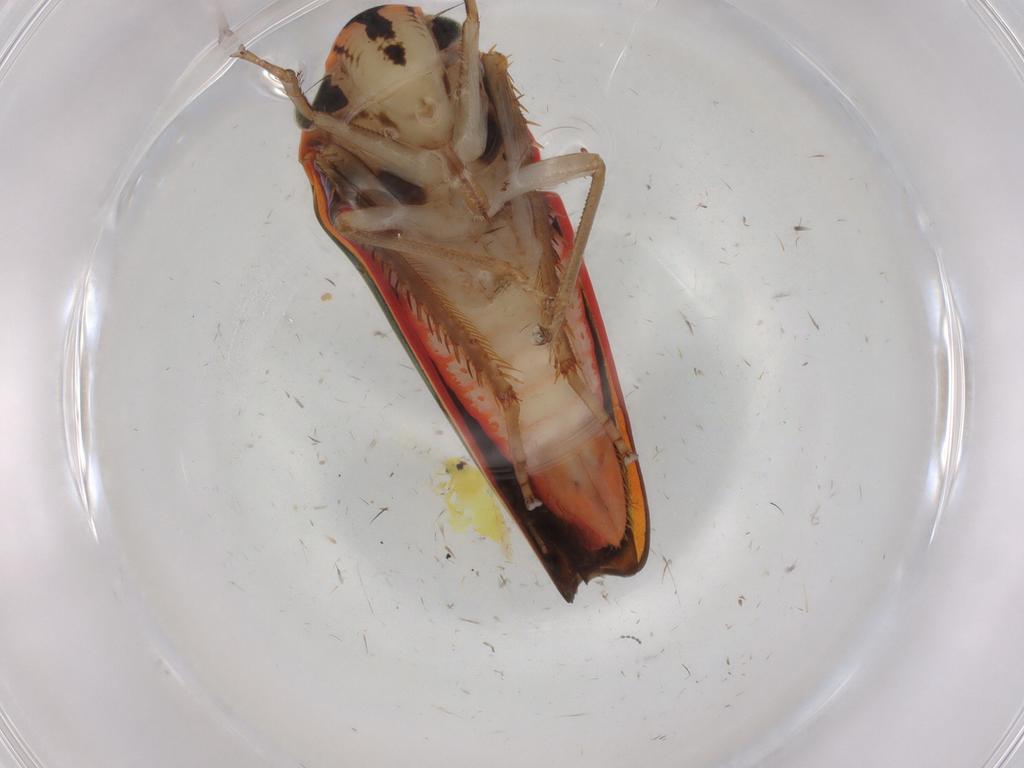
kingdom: Animalia
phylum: Arthropoda
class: Insecta
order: Hemiptera
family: Cicadellidae
